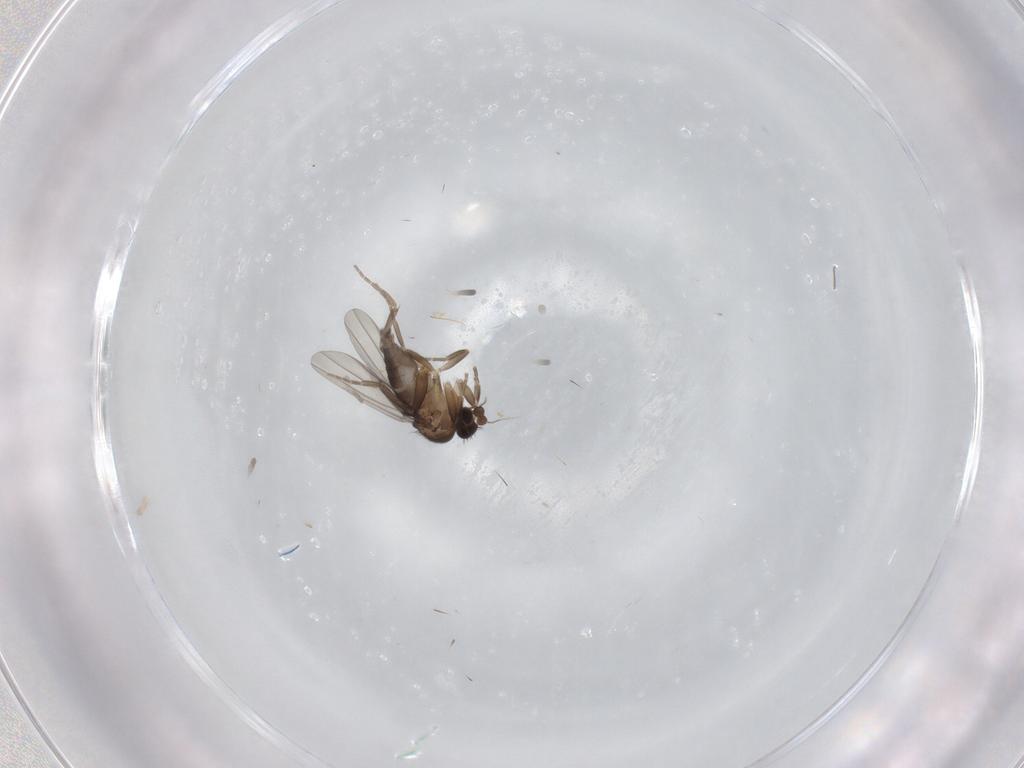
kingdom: Animalia
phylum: Arthropoda
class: Insecta
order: Diptera
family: Phoridae
